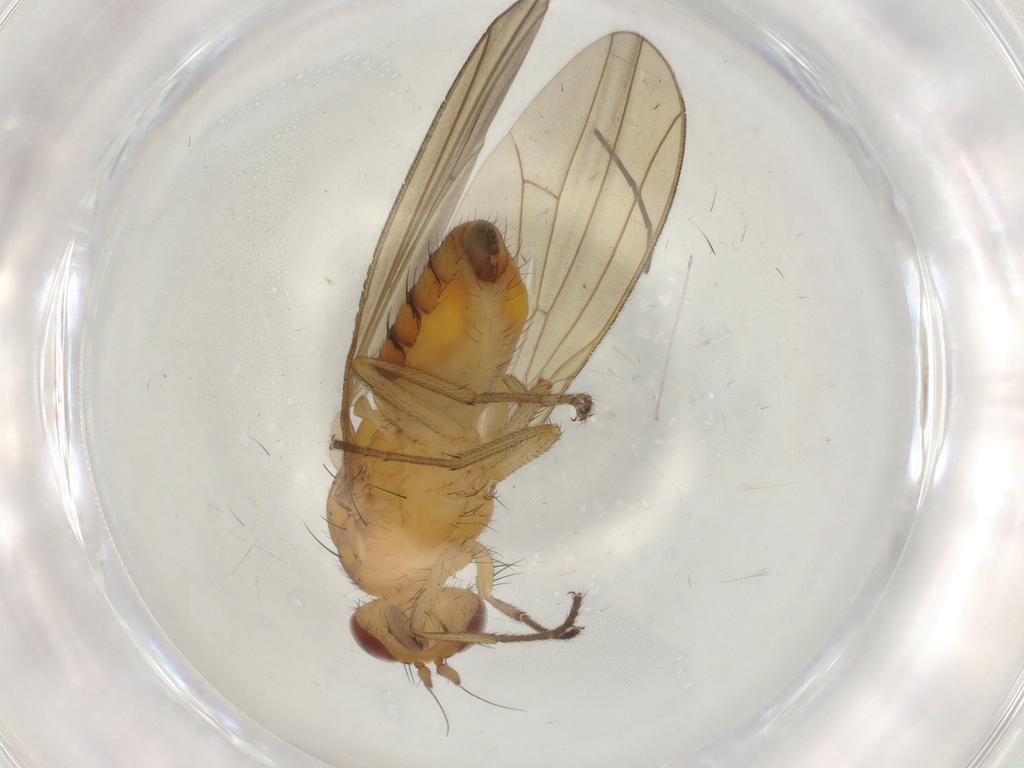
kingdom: Animalia
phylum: Arthropoda
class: Insecta
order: Diptera
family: Sciaridae
